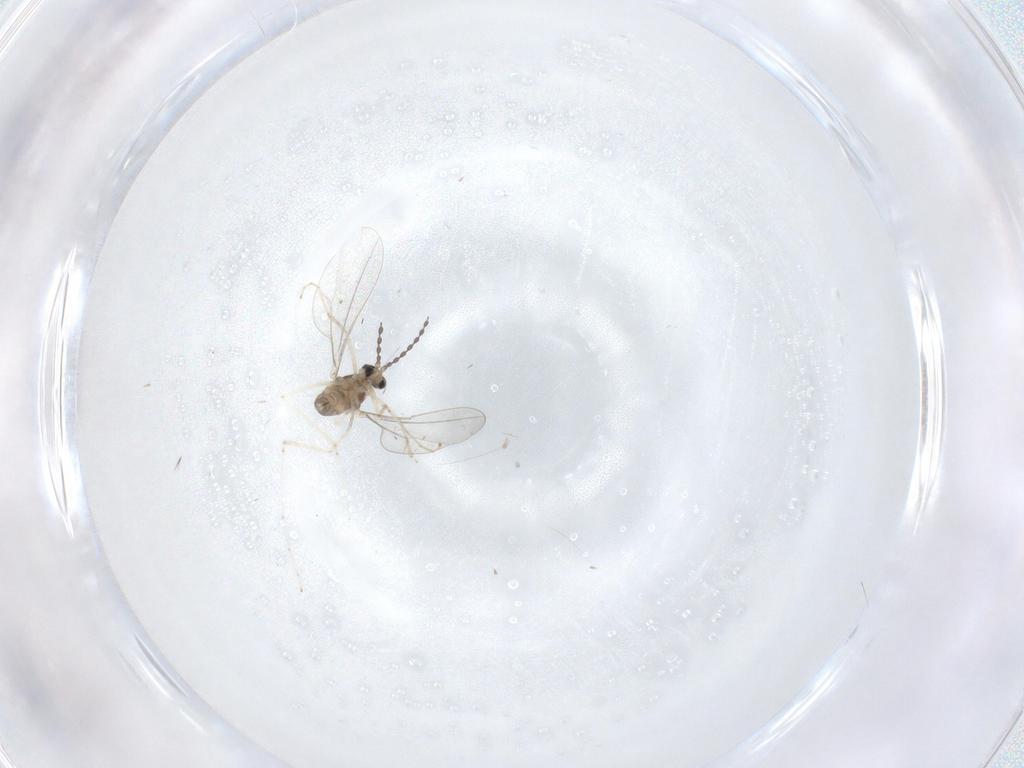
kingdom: Animalia
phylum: Arthropoda
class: Insecta
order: Diptera
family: Cecidomyiidae
